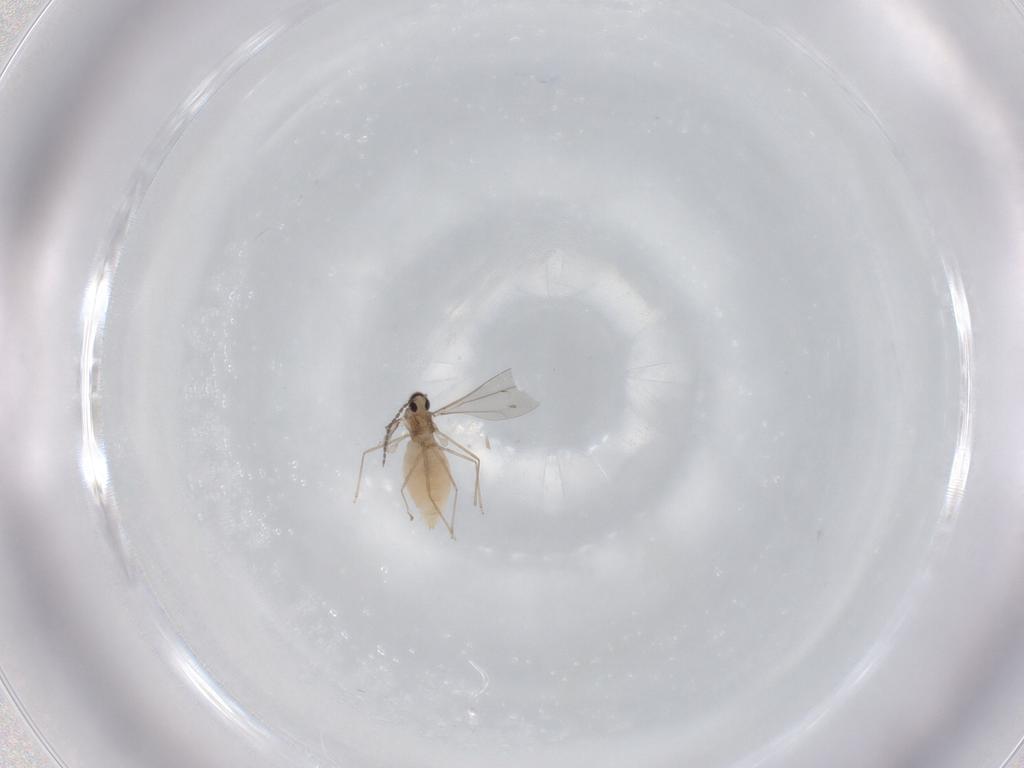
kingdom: Animalia
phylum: Arthropoda
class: Insecta
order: Diptera
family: Cecidomyiidae
